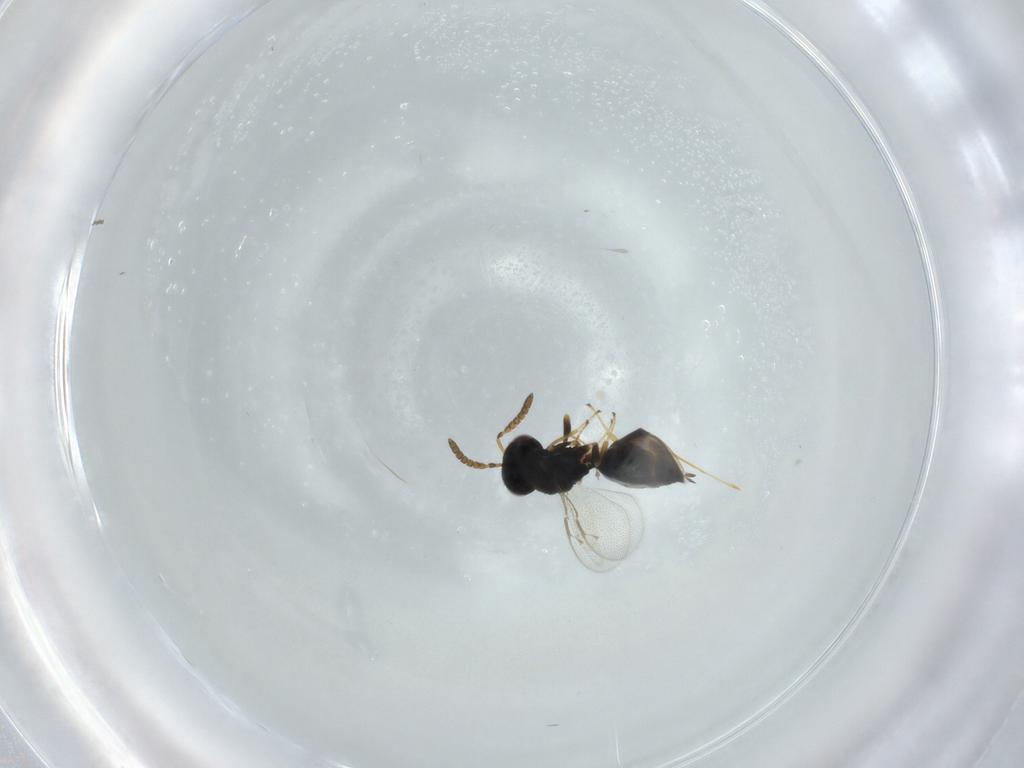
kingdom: Animalia
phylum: Arthropoda
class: Insecta
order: Hymenoptera
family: Pteromalidae
